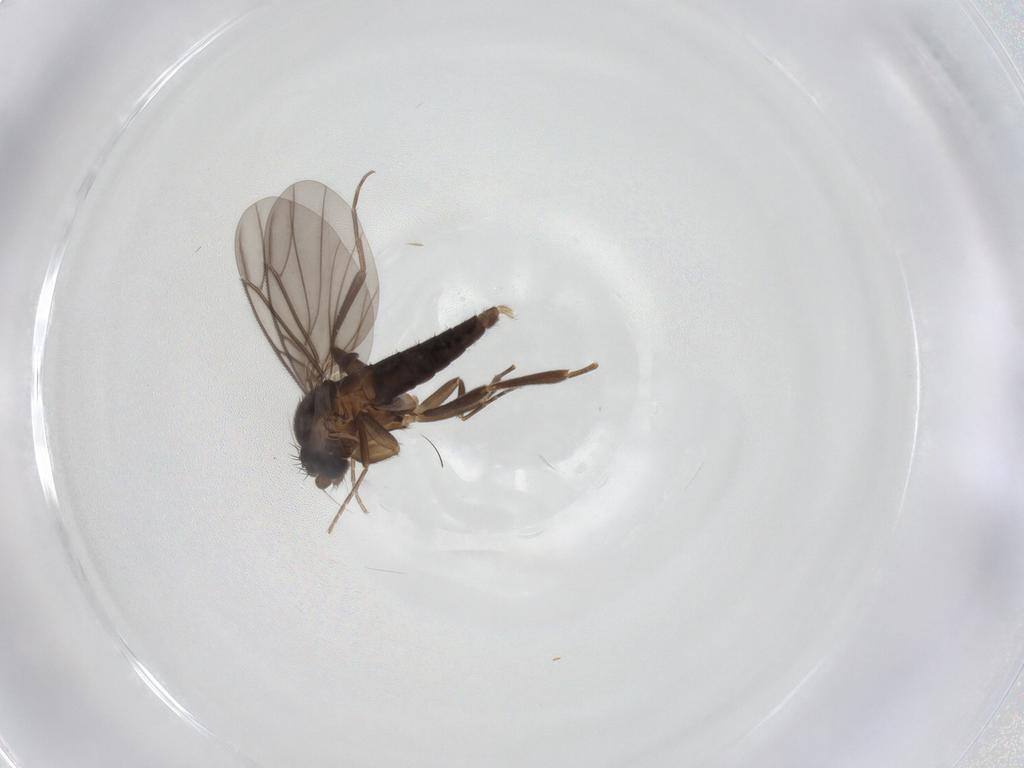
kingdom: Animalia
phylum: Arthropoda
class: Insecta
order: Diptera
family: Cecidomyiidae
